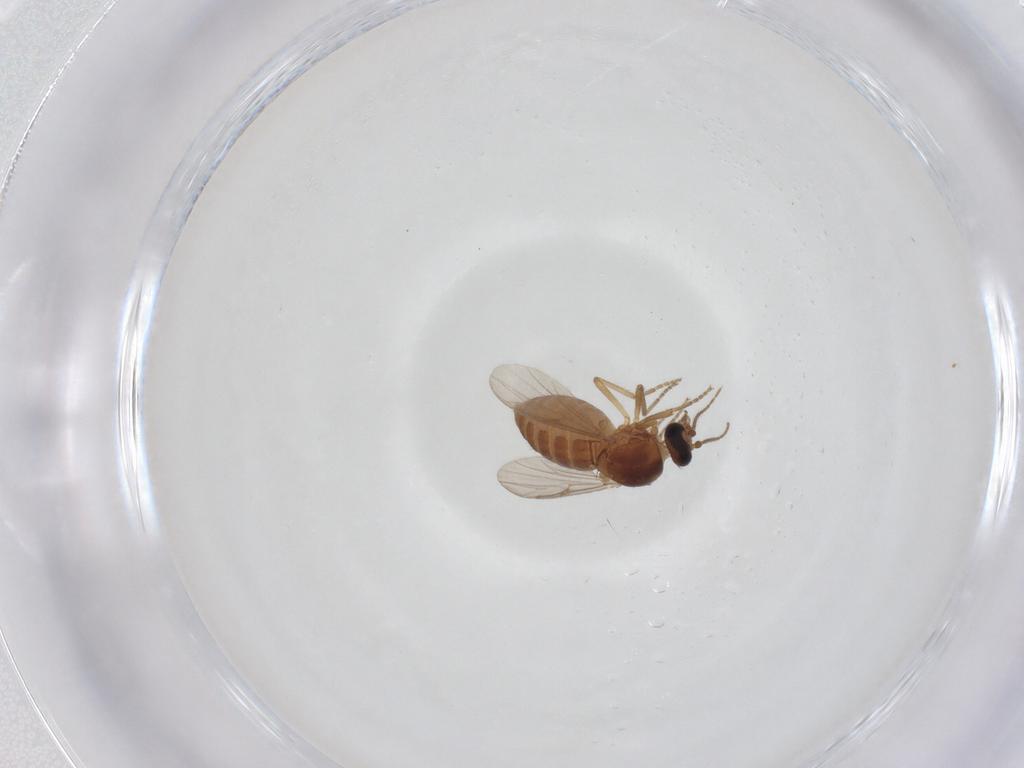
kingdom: Animalia
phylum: Arthropoda
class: Insecta
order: Diptera
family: Ceratopogonidae
